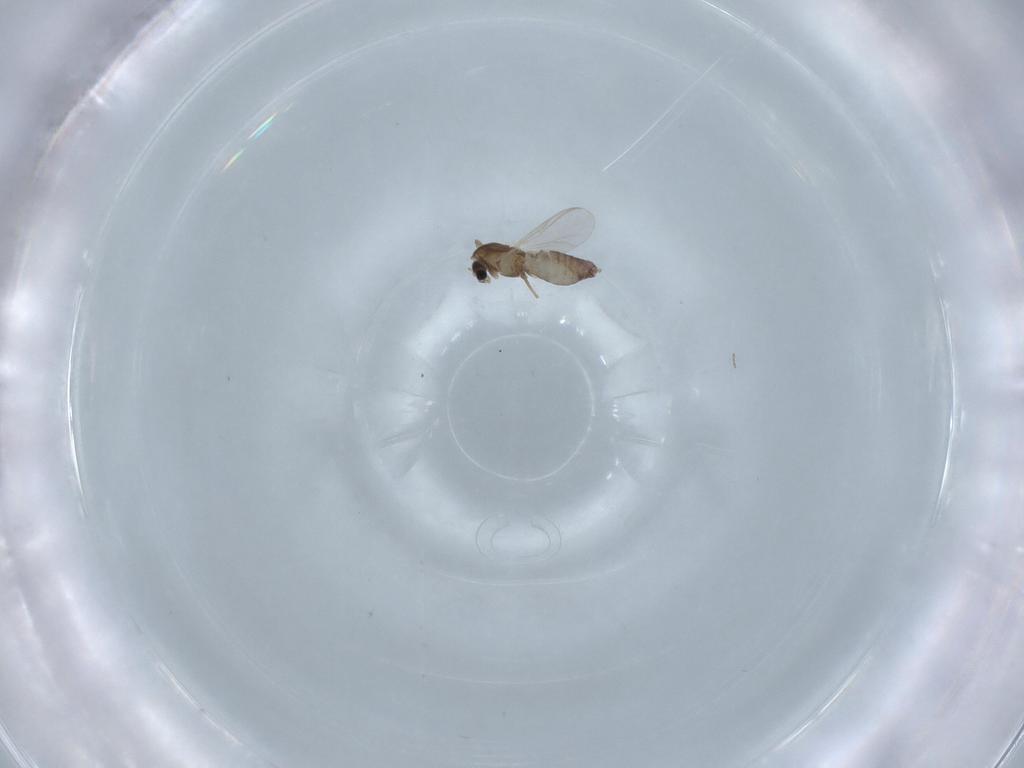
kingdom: Animalia
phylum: Arthropoda
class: Insecta
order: Diptera
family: Chironomidae
